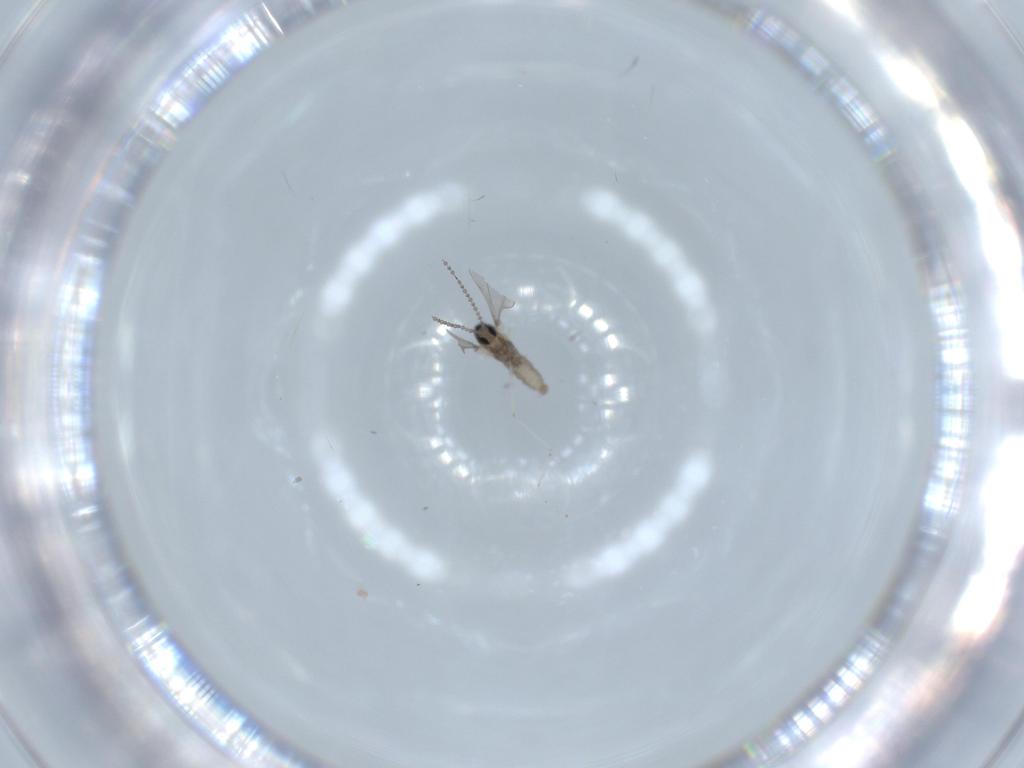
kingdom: Animalia
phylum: Arthropoda
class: Insecta
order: Diptera
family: Cecidomyiidae
